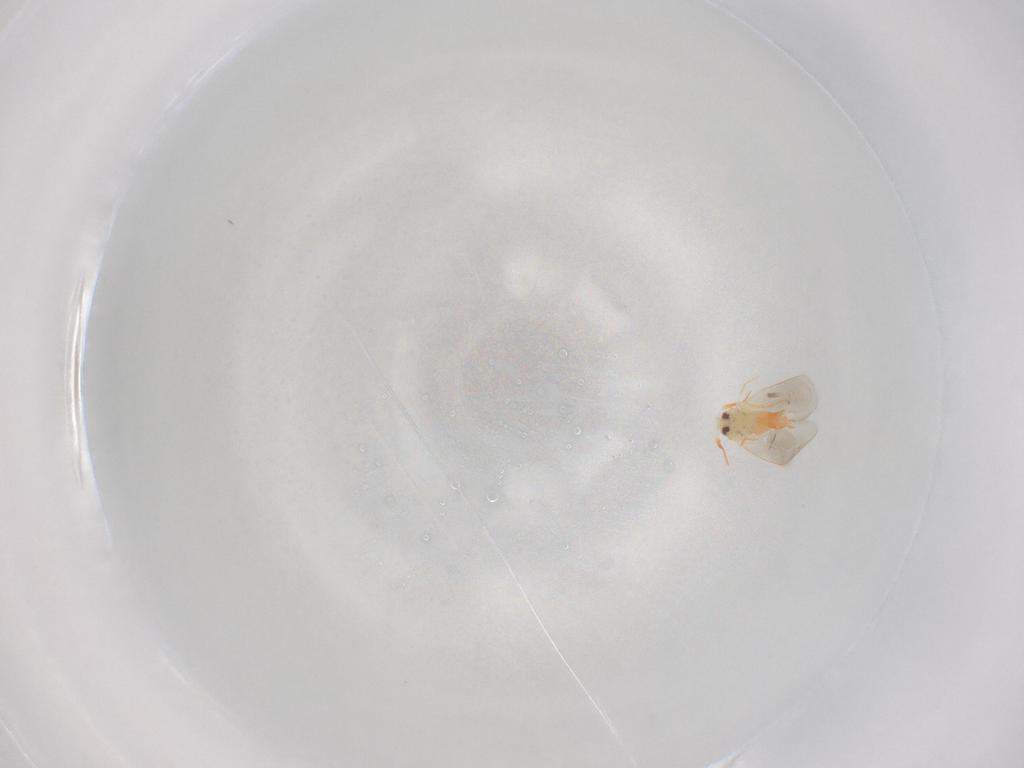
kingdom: Animalia
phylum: Arthropoda
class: Insecta
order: Hemiptera
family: Aleyrodidae
